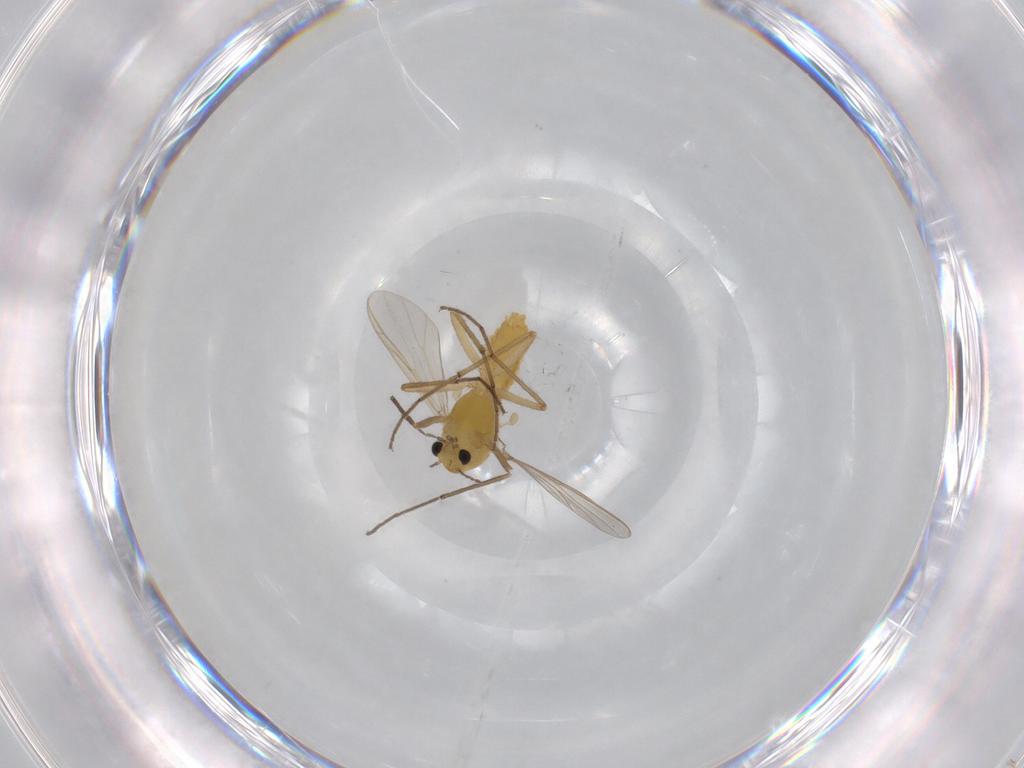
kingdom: Animalia
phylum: Arthropoda
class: Insecta
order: Diptera
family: Chironomidae
